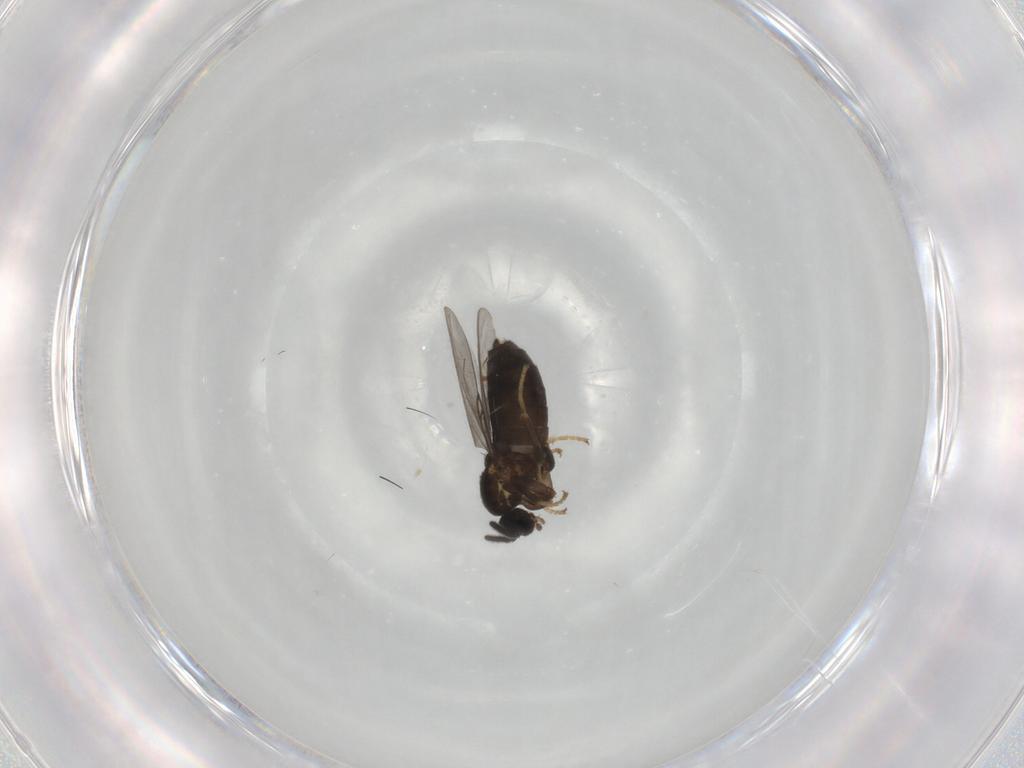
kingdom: Animalia
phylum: Arthropoda
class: Insecta
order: Diptera
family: Scatopsidae
